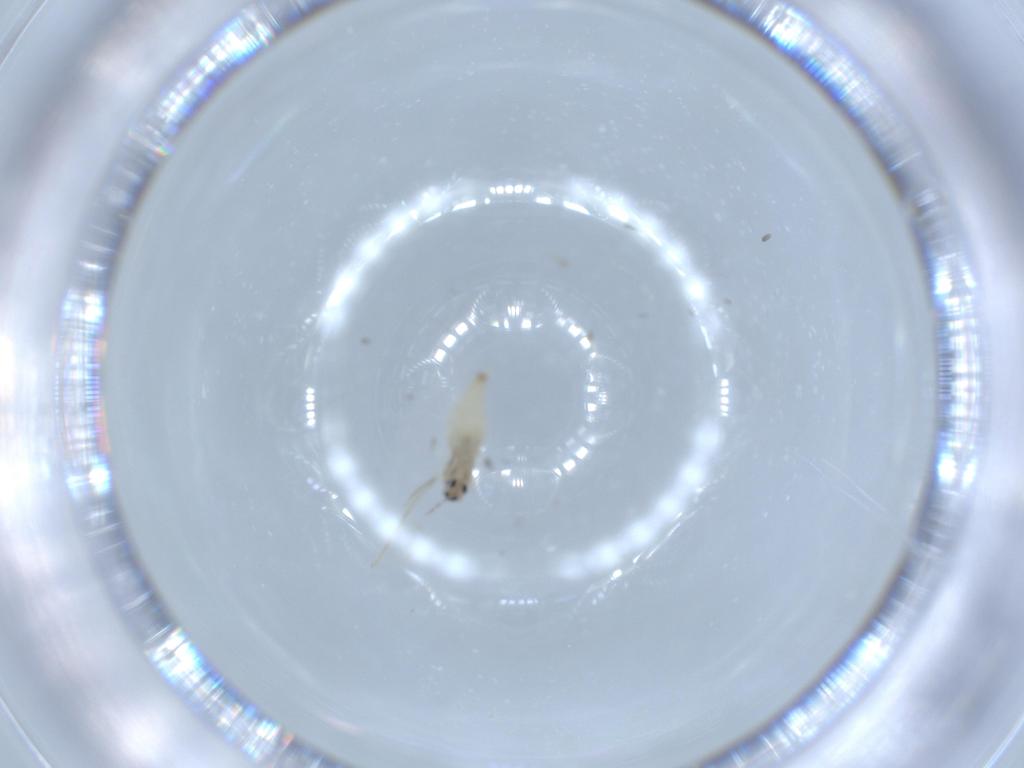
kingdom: Animalia
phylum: Arthropoda
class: Insecta
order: Diptera
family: Cecidomyiidae
